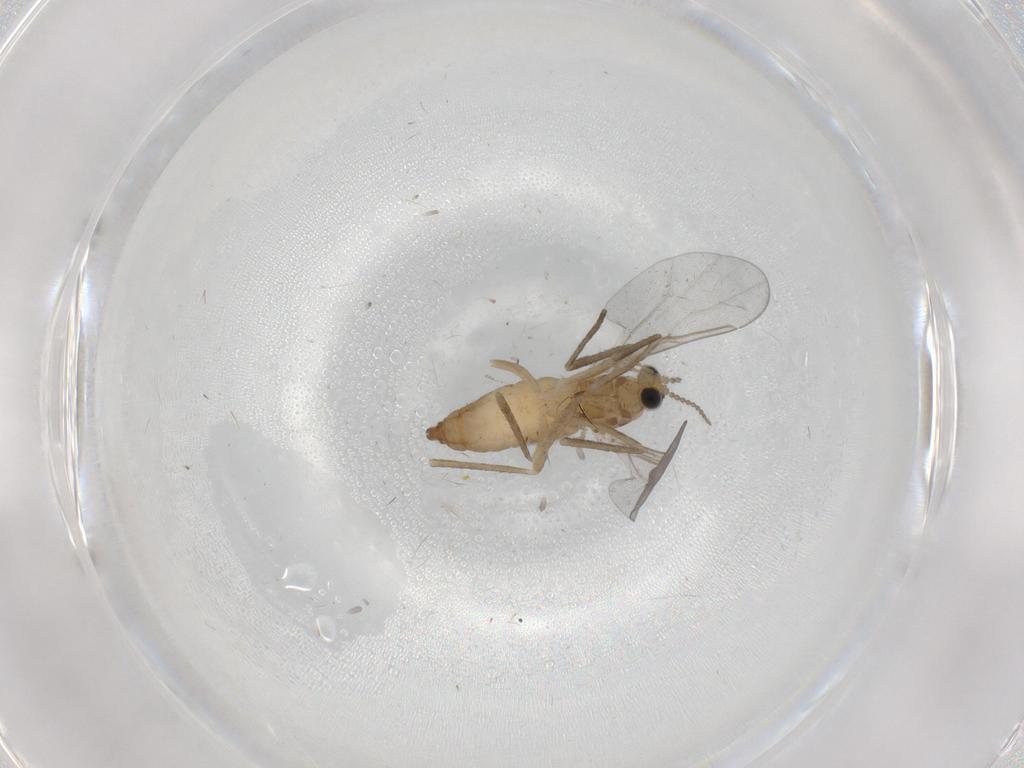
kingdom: Animalia
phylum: Arthropoda
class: Insecta
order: Diptera
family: Cecidomyiidae
